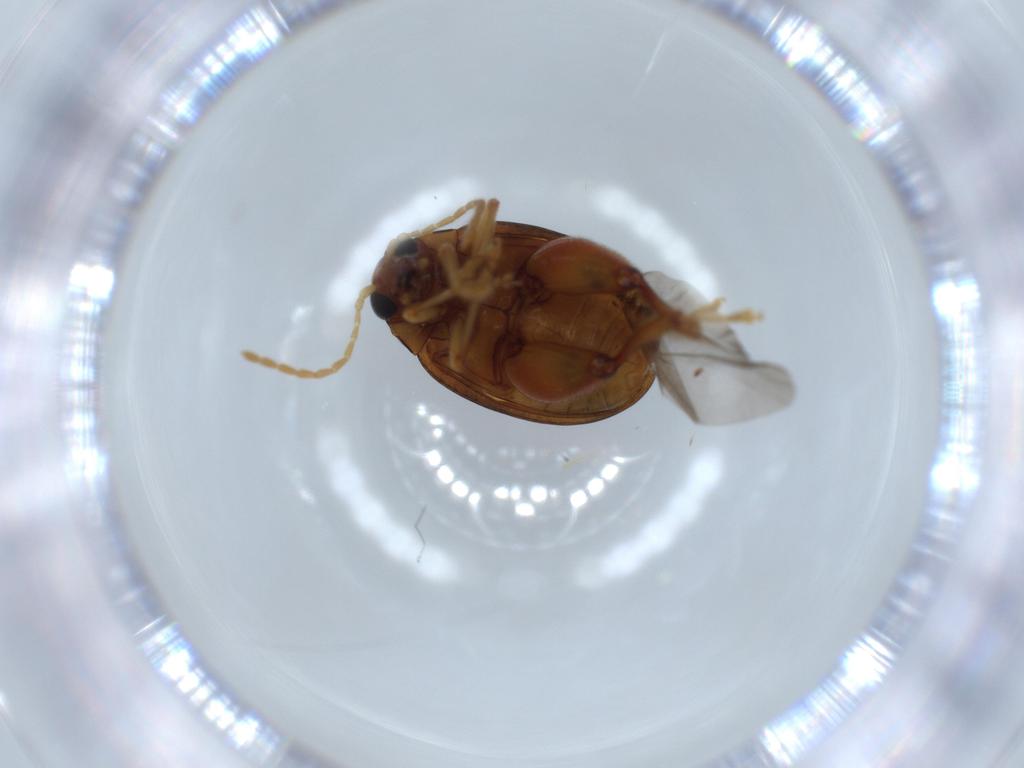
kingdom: Animalia
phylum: Arthropoda
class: Insecta
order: Coleoptera
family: Chrysomelidae
